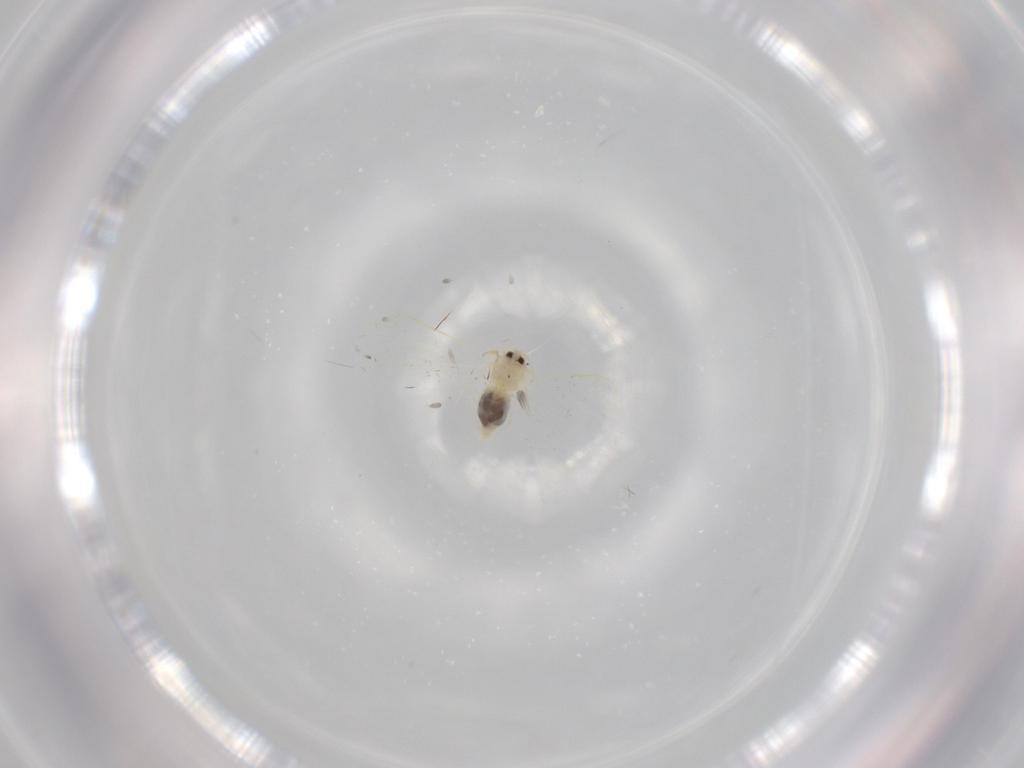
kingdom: Animalia
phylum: Arthropoda
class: Insecta
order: Hemiptera
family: Aleyrodidae
